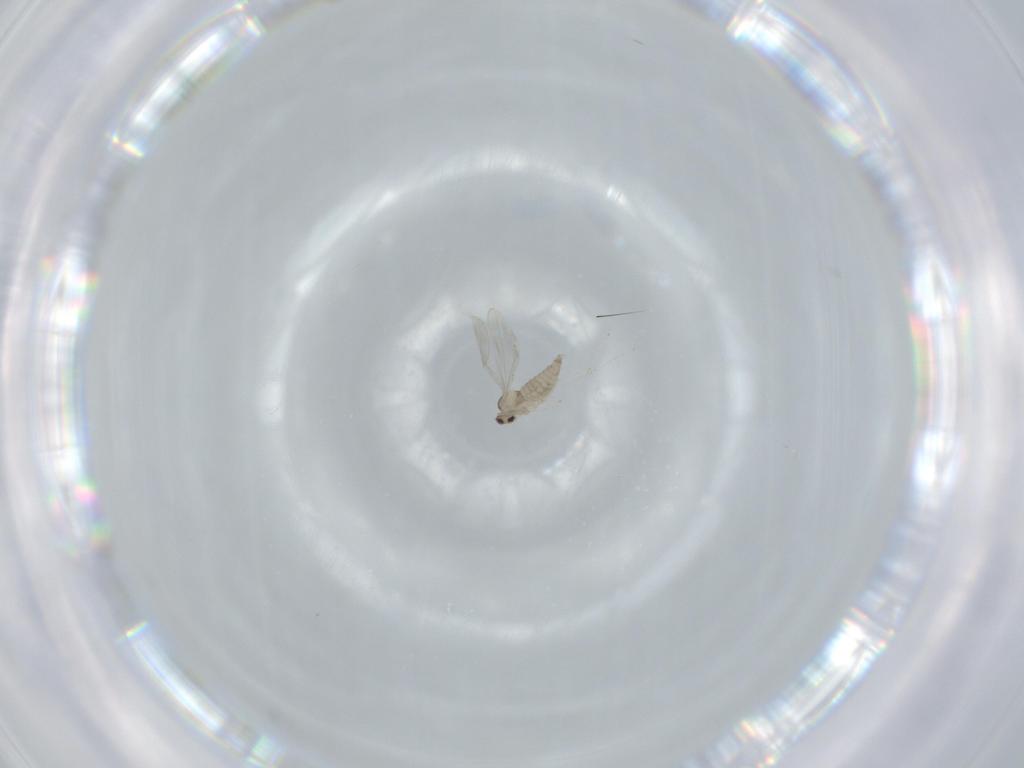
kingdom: Animalia
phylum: Arthropoda
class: Insecta
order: Diptera
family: Cecidomyiidae
